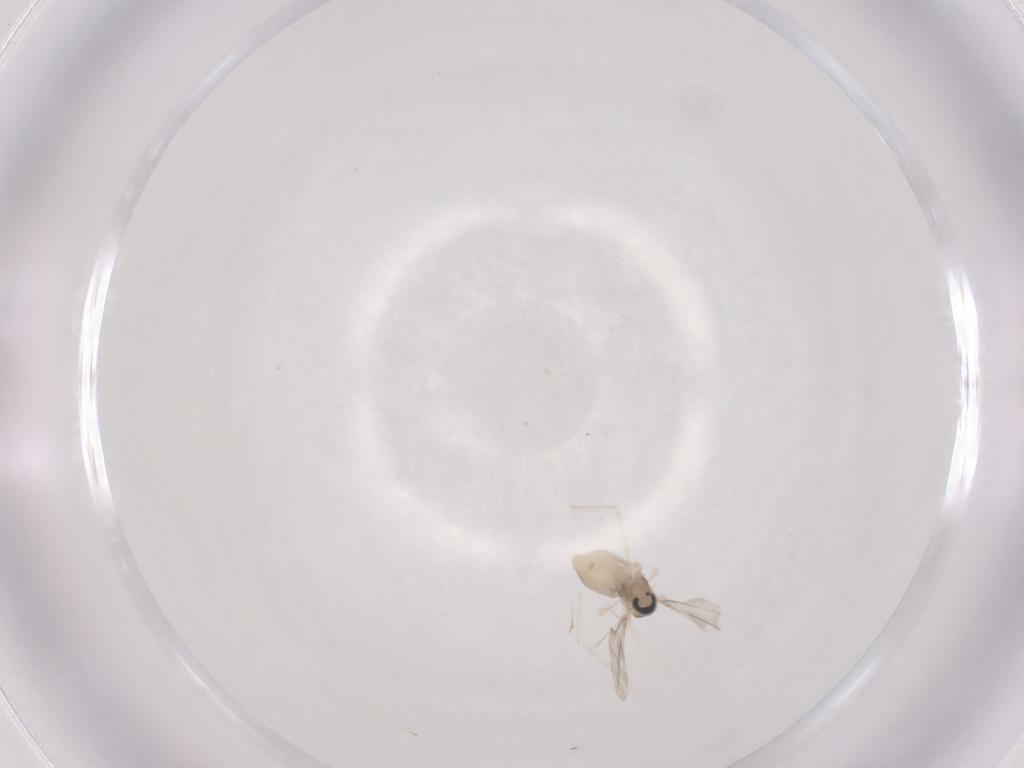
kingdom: Animalia
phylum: Arthropoda
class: Insecta
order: Diptera
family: Cecidomyiidae
